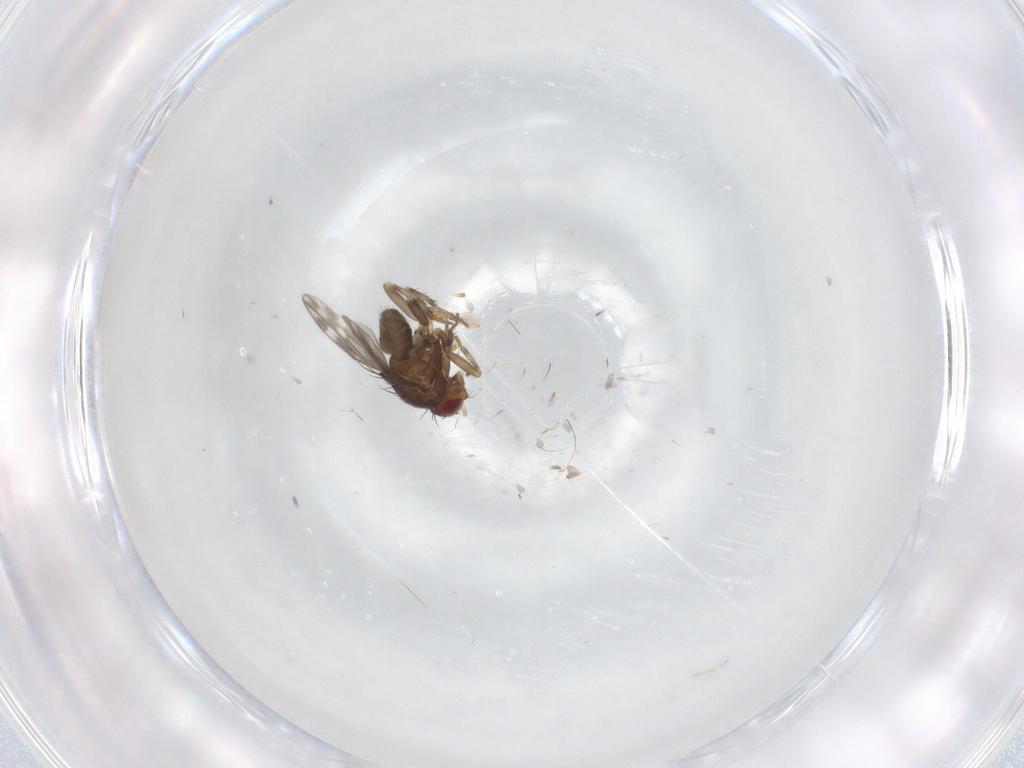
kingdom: Animalia
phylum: Arthropoda
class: Insecta
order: Diptera
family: Sphaeroceridae
